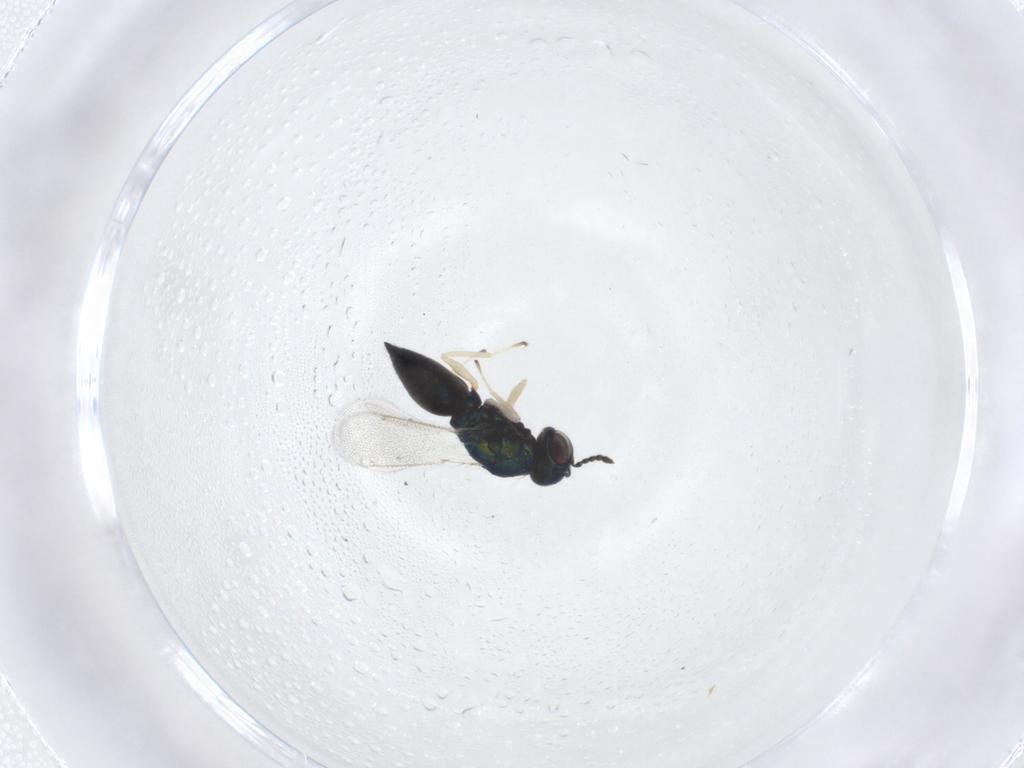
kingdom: Animalia
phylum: Arthropoda
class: Insecta
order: Hymenoptera
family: Eulophidae
